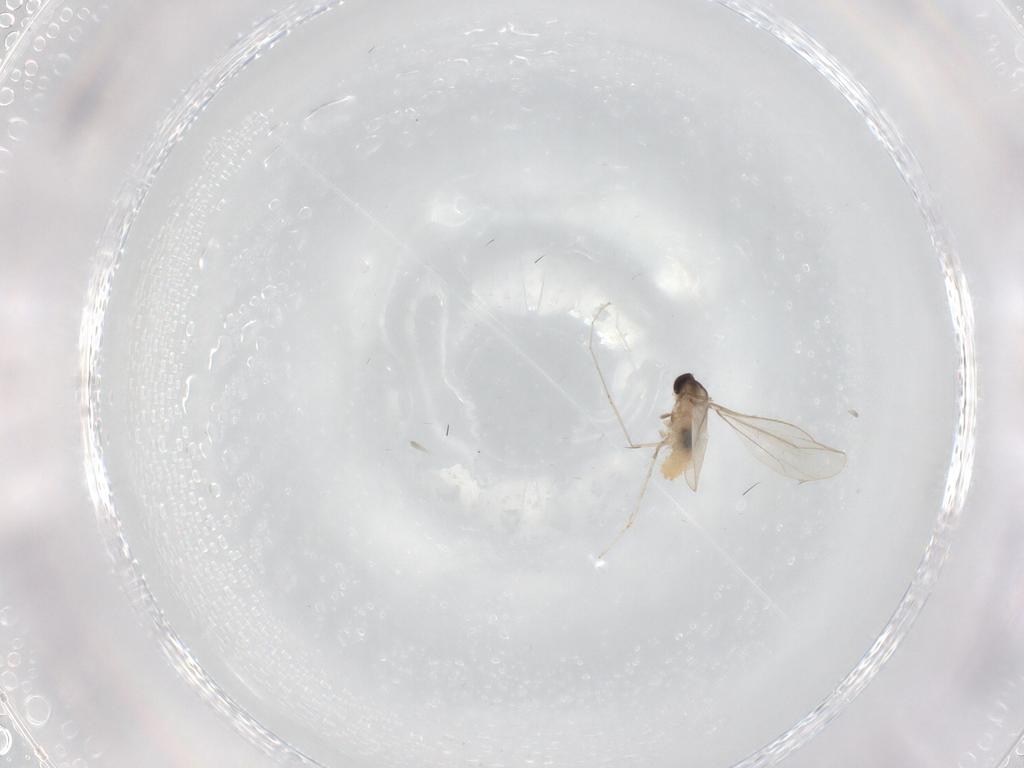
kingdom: Animalia
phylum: Arthropoda
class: Insecta
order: Diptera
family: Cecidomyiidae
